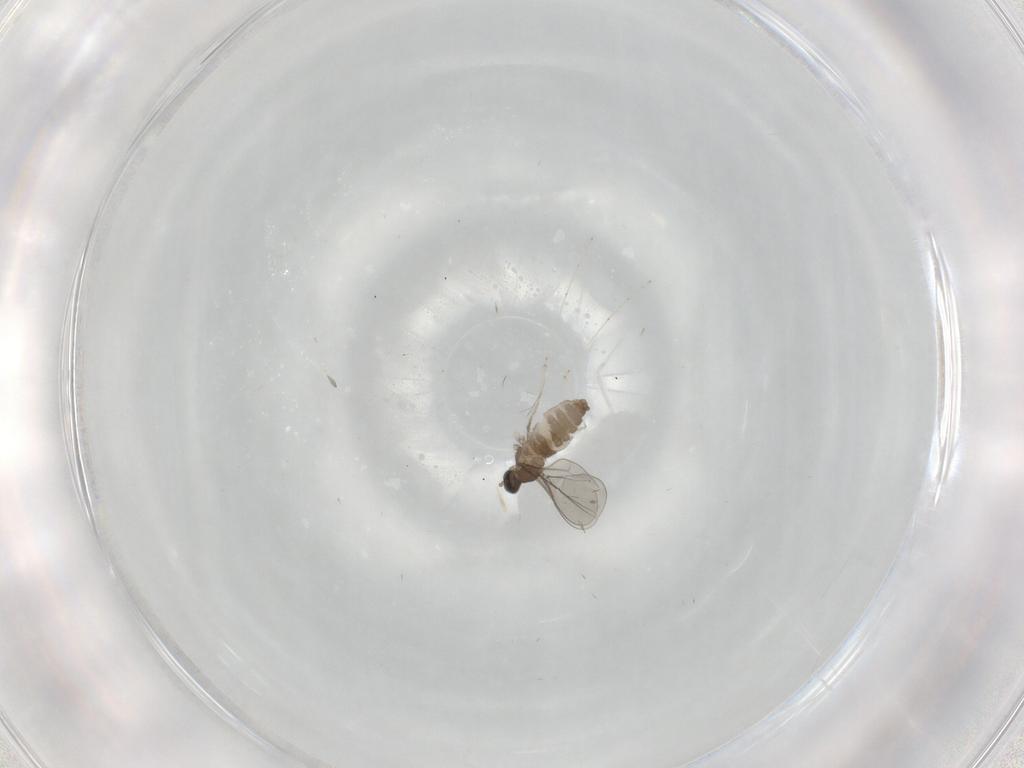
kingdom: Animalia
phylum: Arthropoda
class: Insecta
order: Diptera
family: Cecidomyiidae
